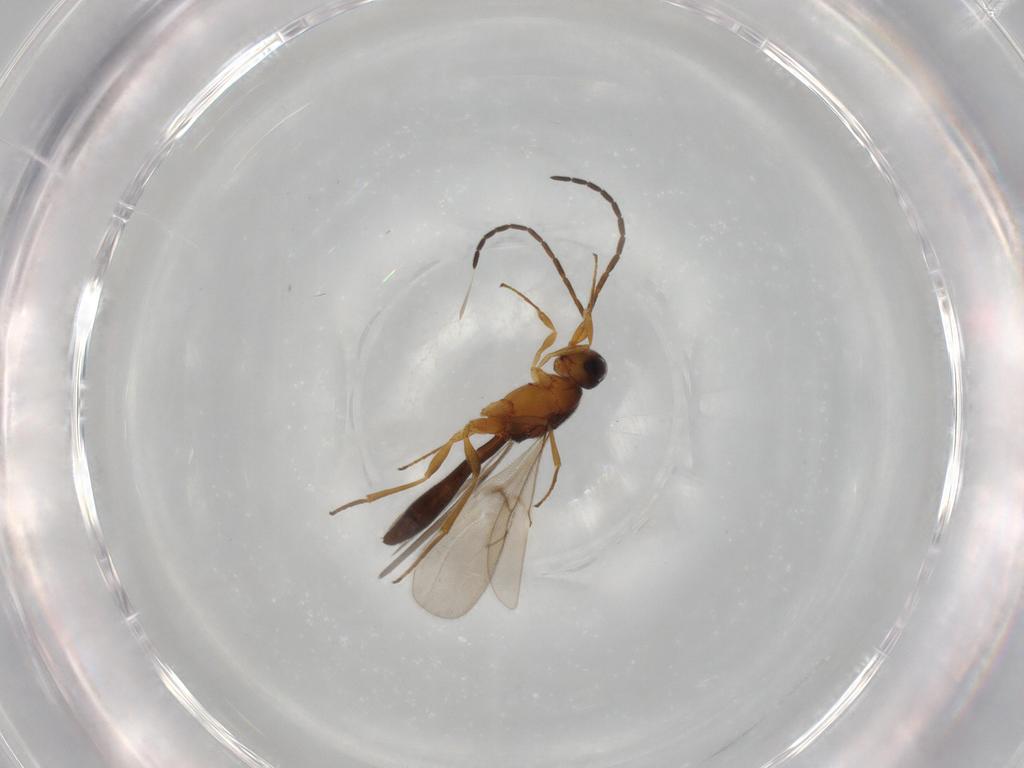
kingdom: Animalia
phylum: Arthropoda
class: Insecta
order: Hymenoptera
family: Scelionidae
